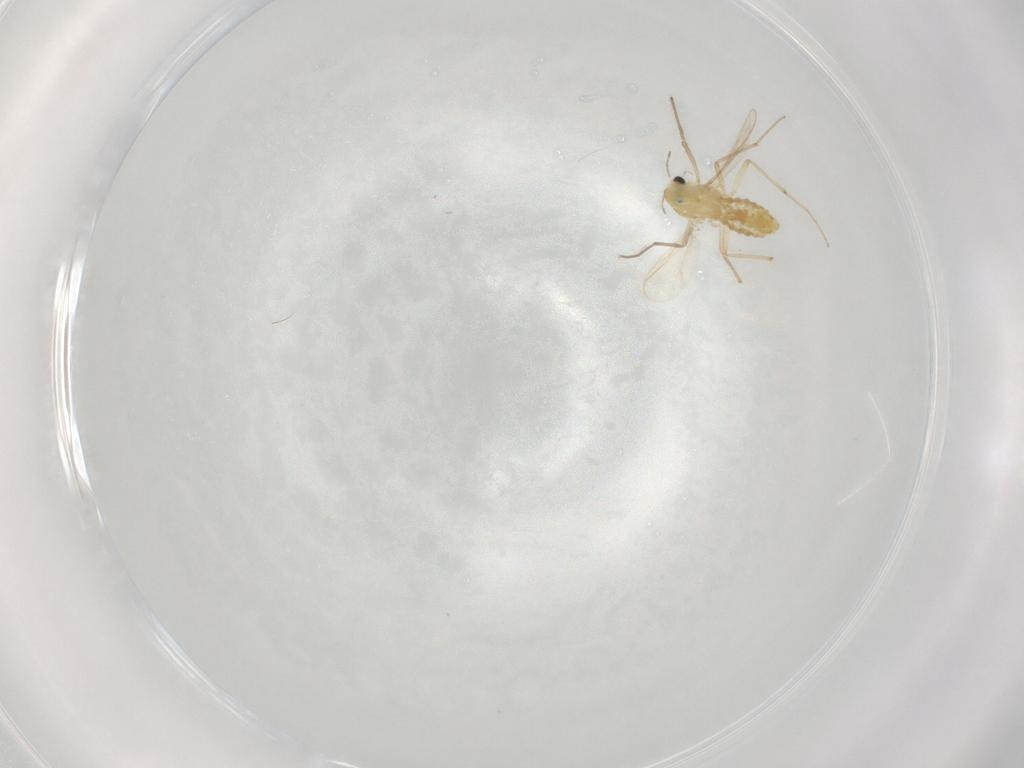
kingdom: Animalia
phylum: Arthropoda
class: Insecta
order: Diptera
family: Chironomidae
